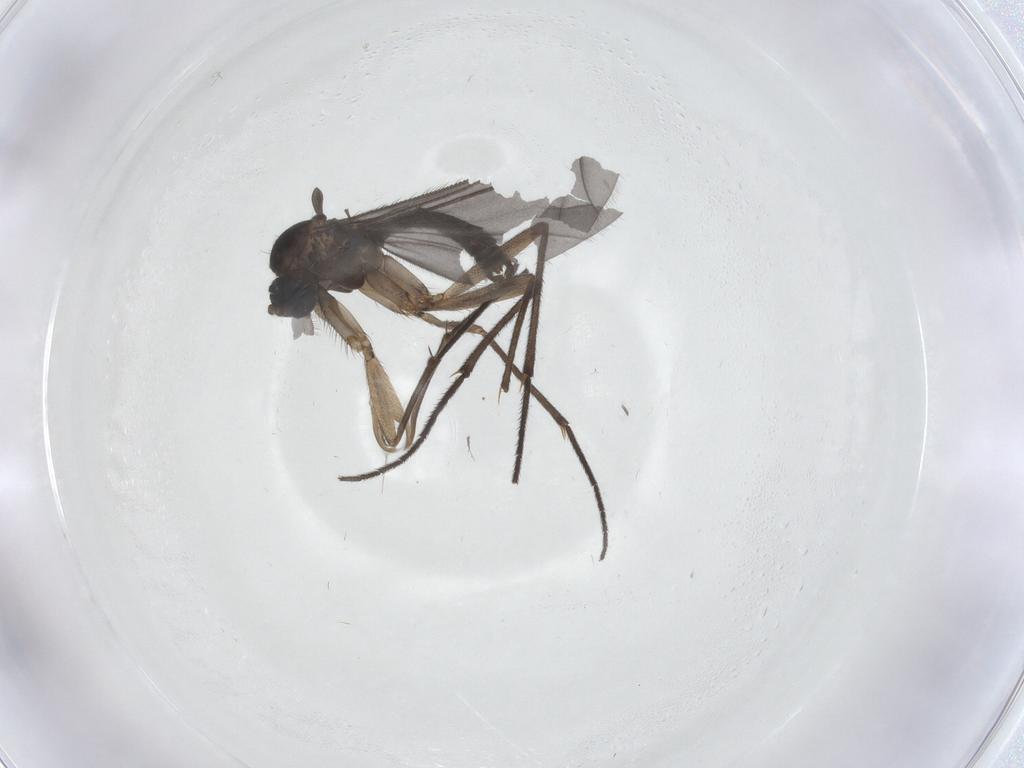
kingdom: Animalia
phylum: Arthropoda
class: Insecta
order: Diptera
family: Sciaridae
